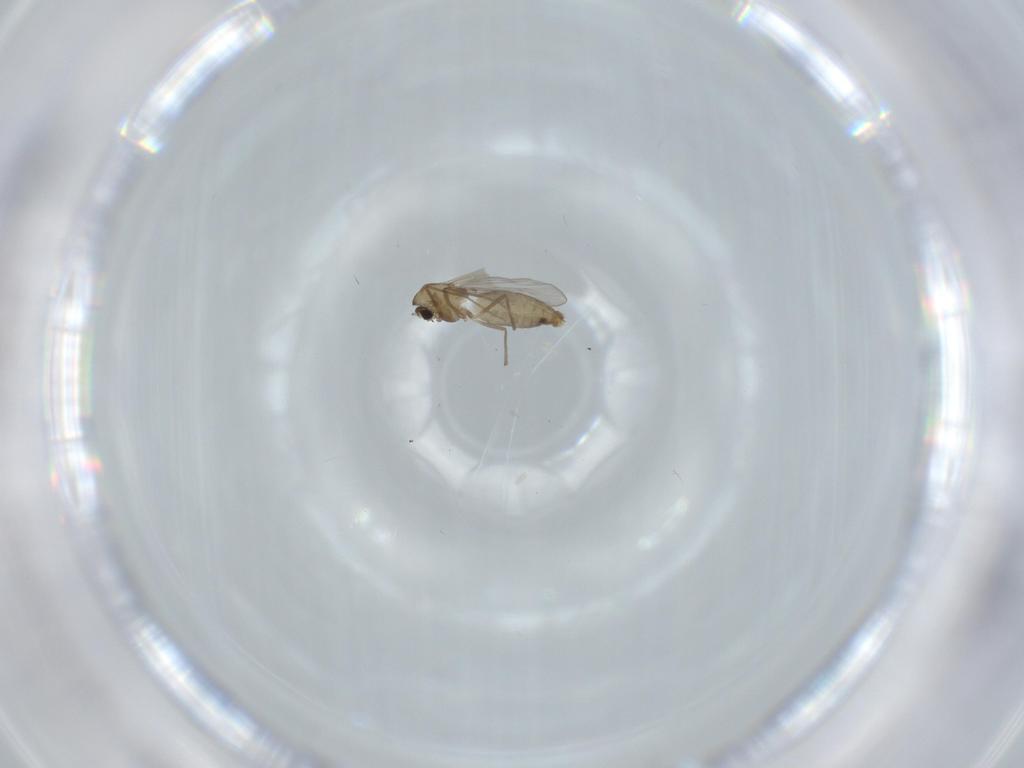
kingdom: Animalia
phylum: Arthropoda
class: Insecta
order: Diptera
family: Chironomidae
